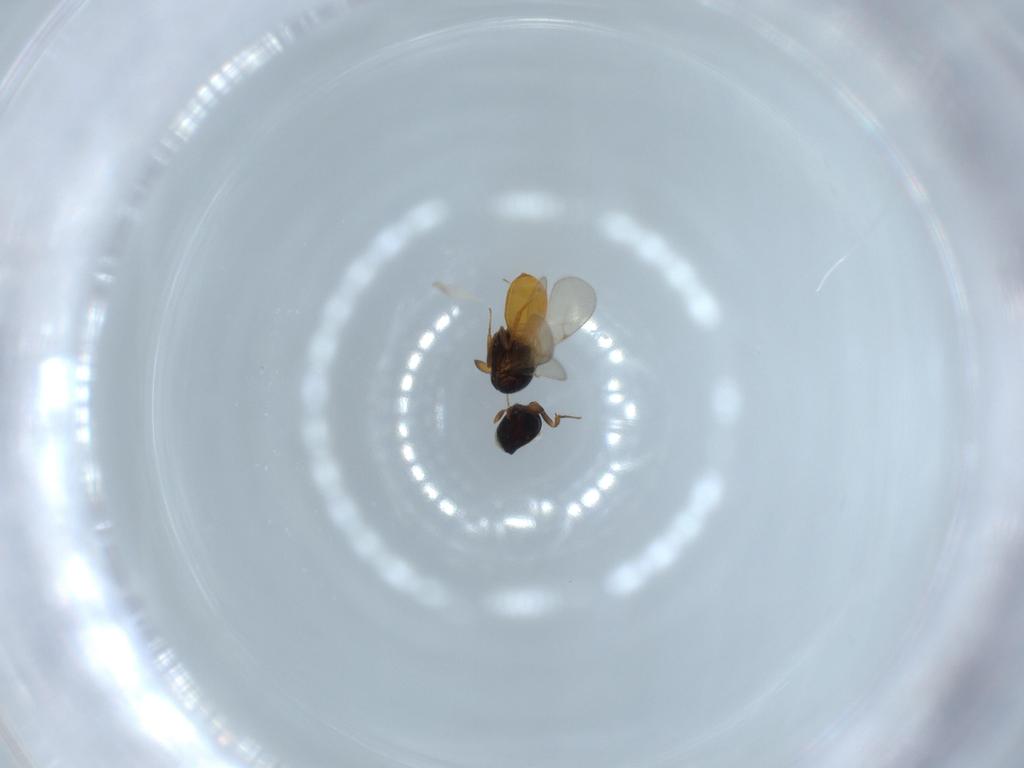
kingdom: Animalia
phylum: Arthropoda
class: Insecta
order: Hymenoptera
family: Scelionidae
